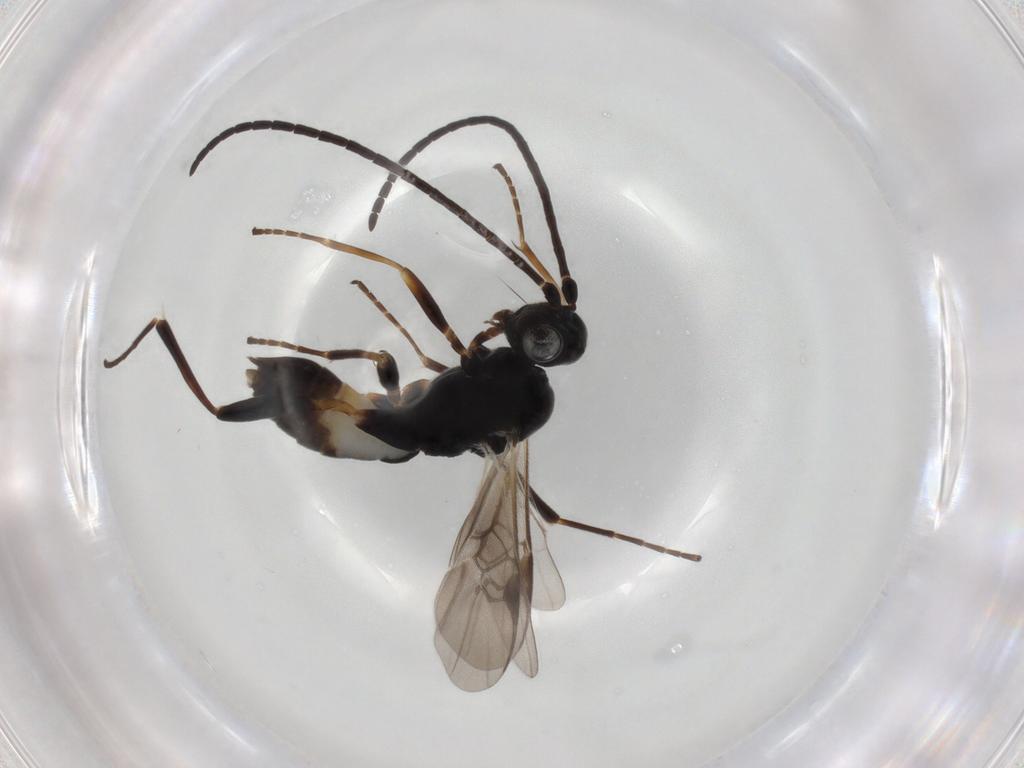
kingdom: Animalia
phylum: Arthropoda
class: Insecta
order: Hymenoptera
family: Braconidae
